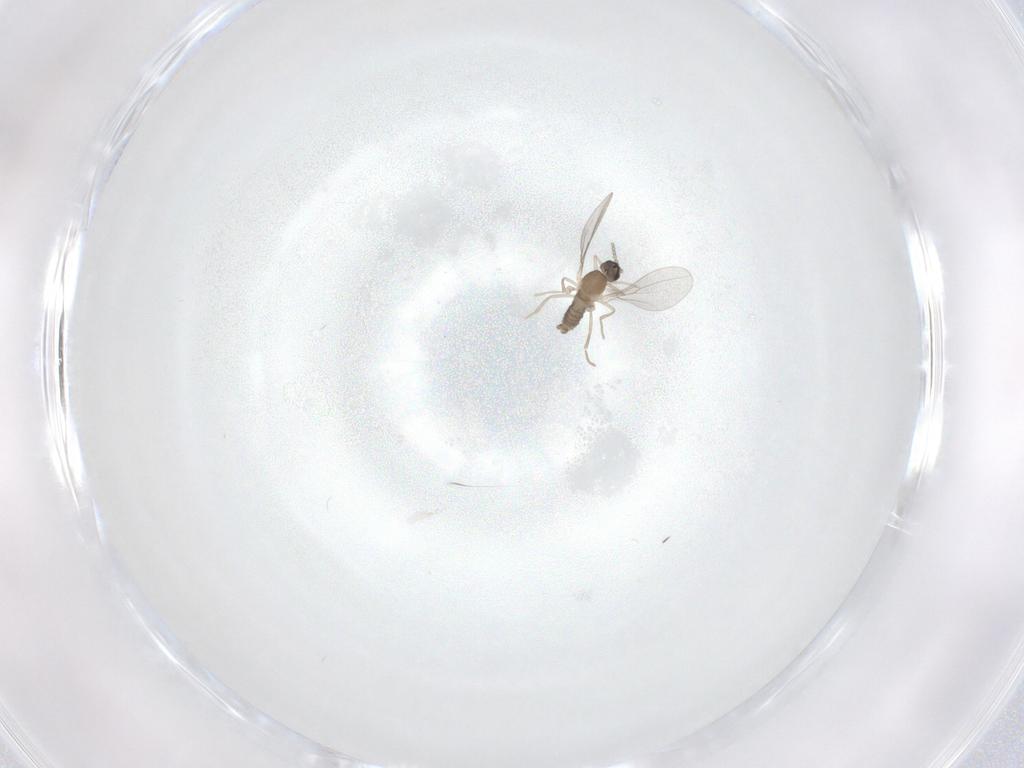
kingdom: Animalia
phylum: Arthropoda
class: Insecta
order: Diptera
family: Cecidomyiidae
